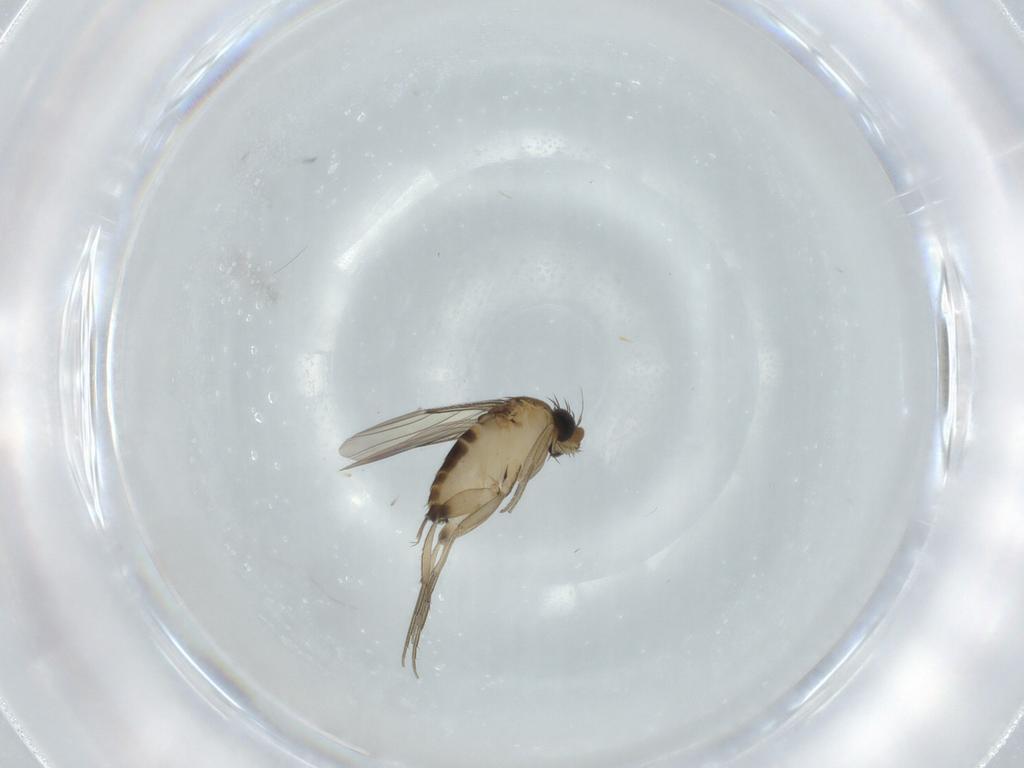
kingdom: Animalia
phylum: Arthropoda
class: Insecta
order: Diptera
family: Phoridae
